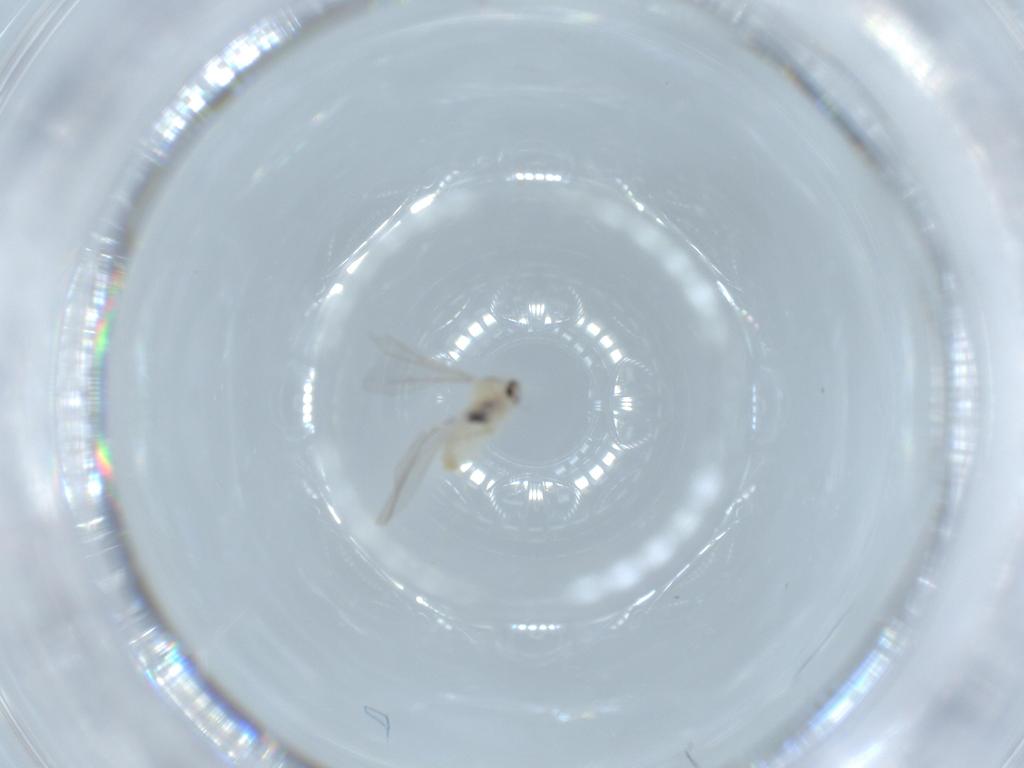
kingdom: Animalia
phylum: Arthropoda
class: Insecta
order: Diptera
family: Cecidomyiidae
